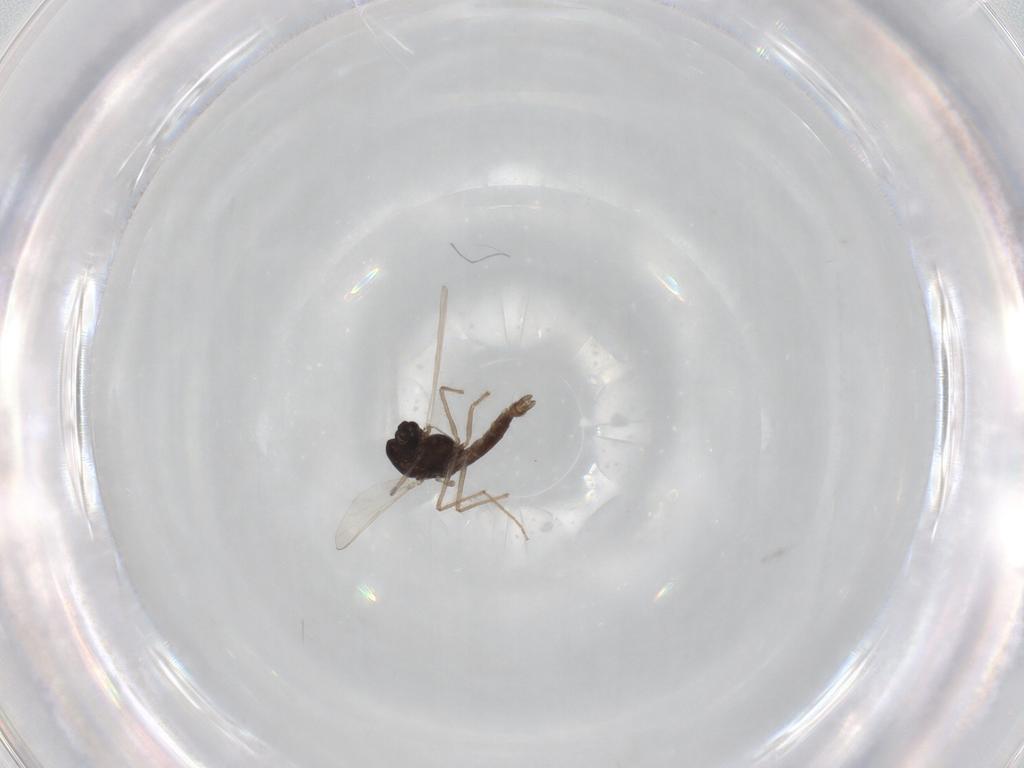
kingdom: Animalia
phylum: Arthropoda
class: Insecta
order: Diptera
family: Chironomidae
